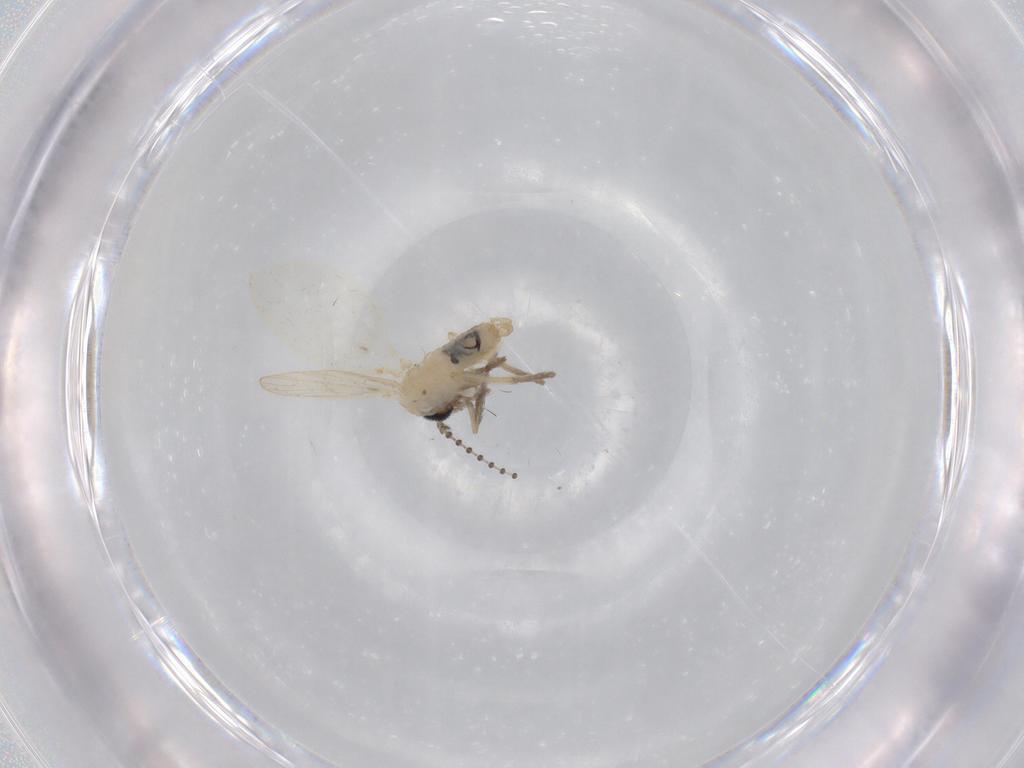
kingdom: Animalia
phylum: Arthropoda
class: Insecta
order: Diptera
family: Psychodidae
